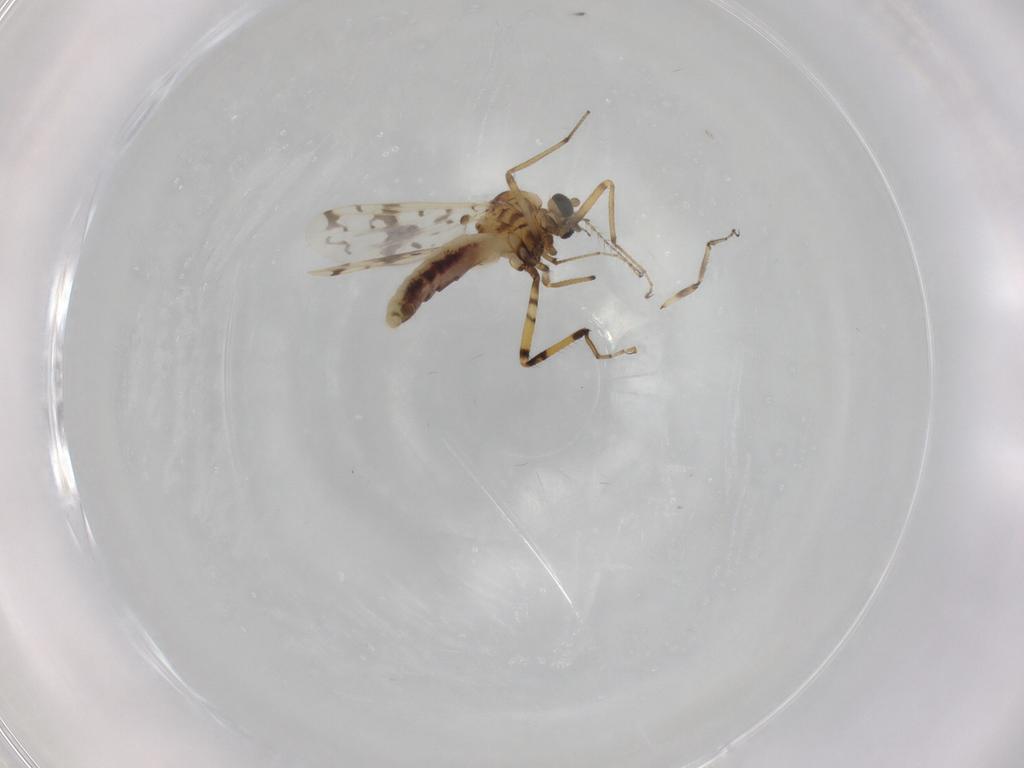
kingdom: Animalia
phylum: Arthropoda
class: Insecta
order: Diptera
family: Ceratopogonidae
